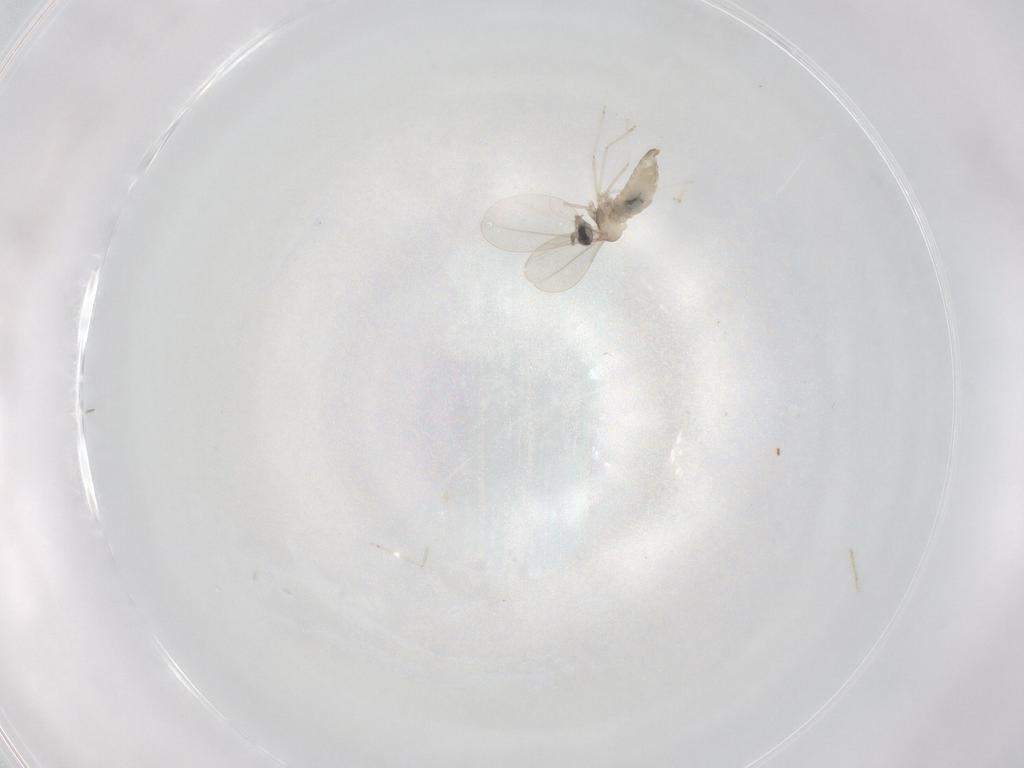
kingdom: Animalia
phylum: Arthropoda
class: Insecta
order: Diptera
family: Cecidomyiidae
